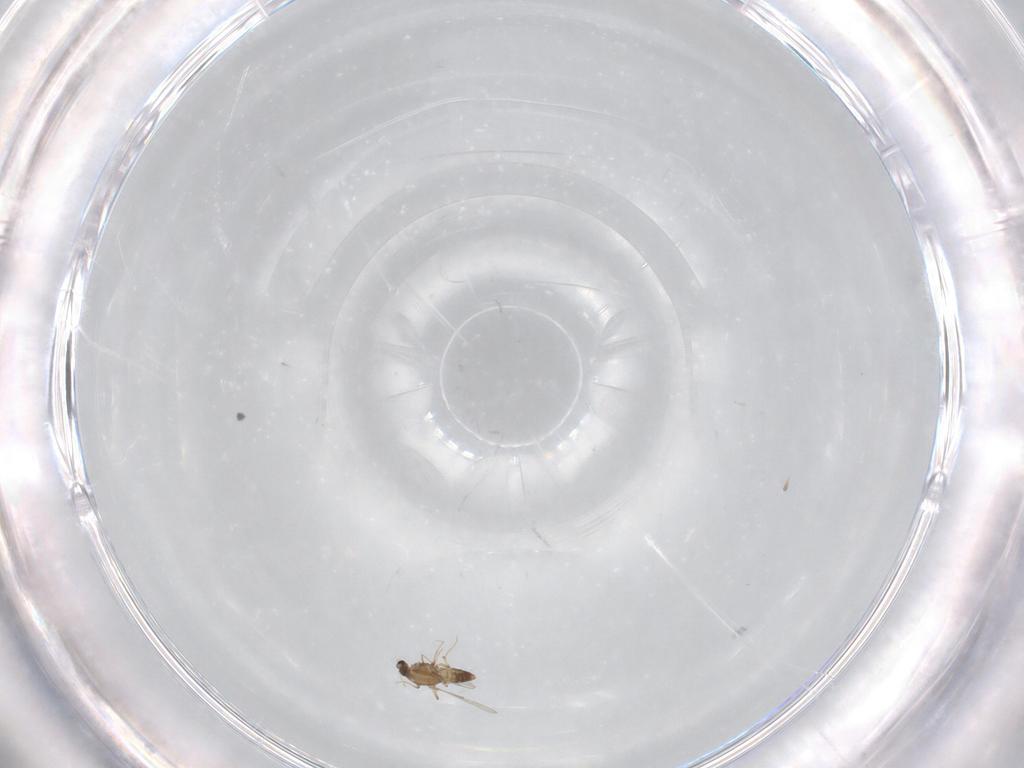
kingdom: Animalia
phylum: Arthropoda
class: Insecta
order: Diptera
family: Chironomidae
